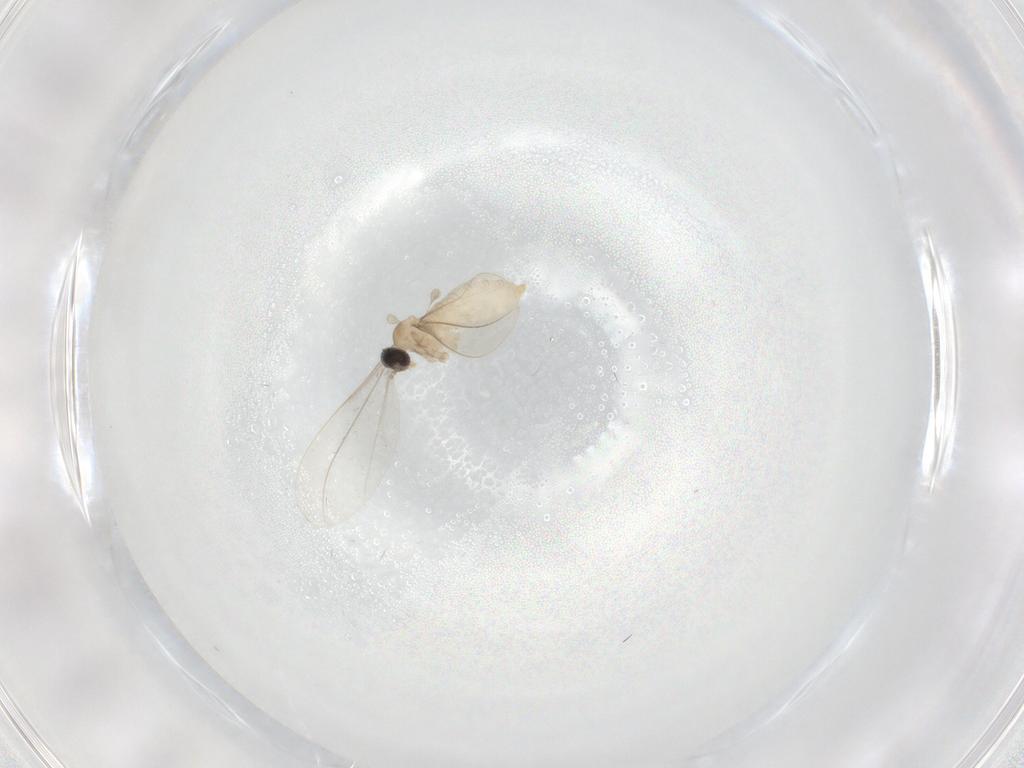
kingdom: Animalia
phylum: Arthropoda
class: Insecta
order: Diptera
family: Cecidomyiidae
